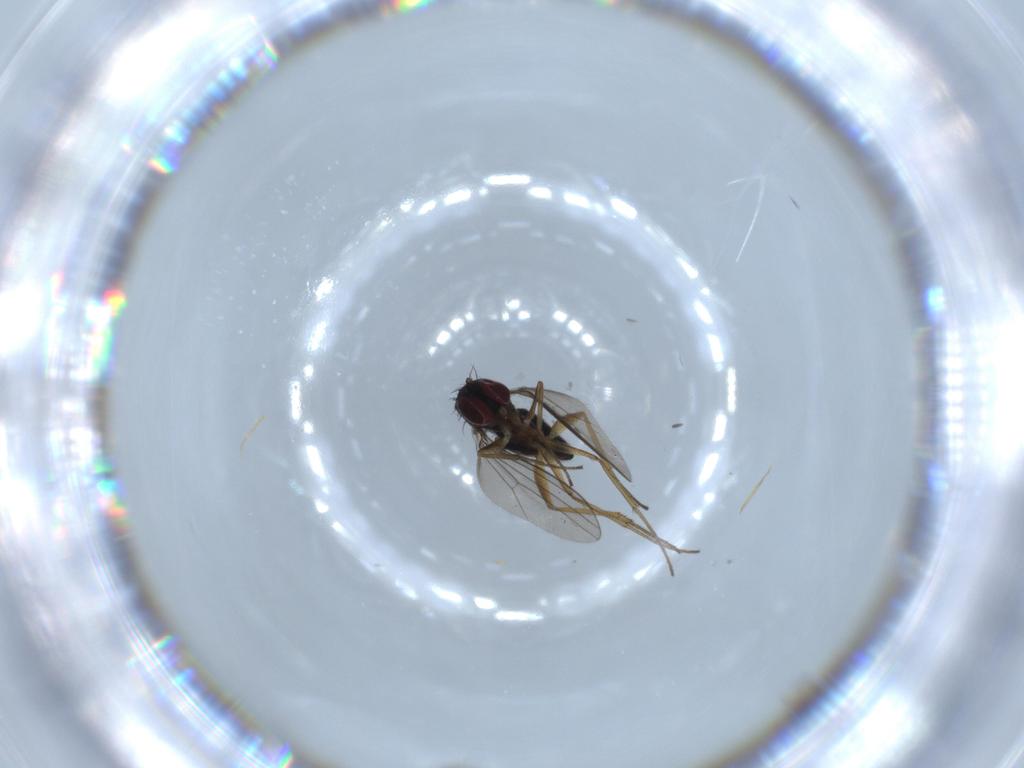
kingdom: Animalia
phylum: Arthropoda
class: Insecta
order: Diptera
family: Dolichopodidae
